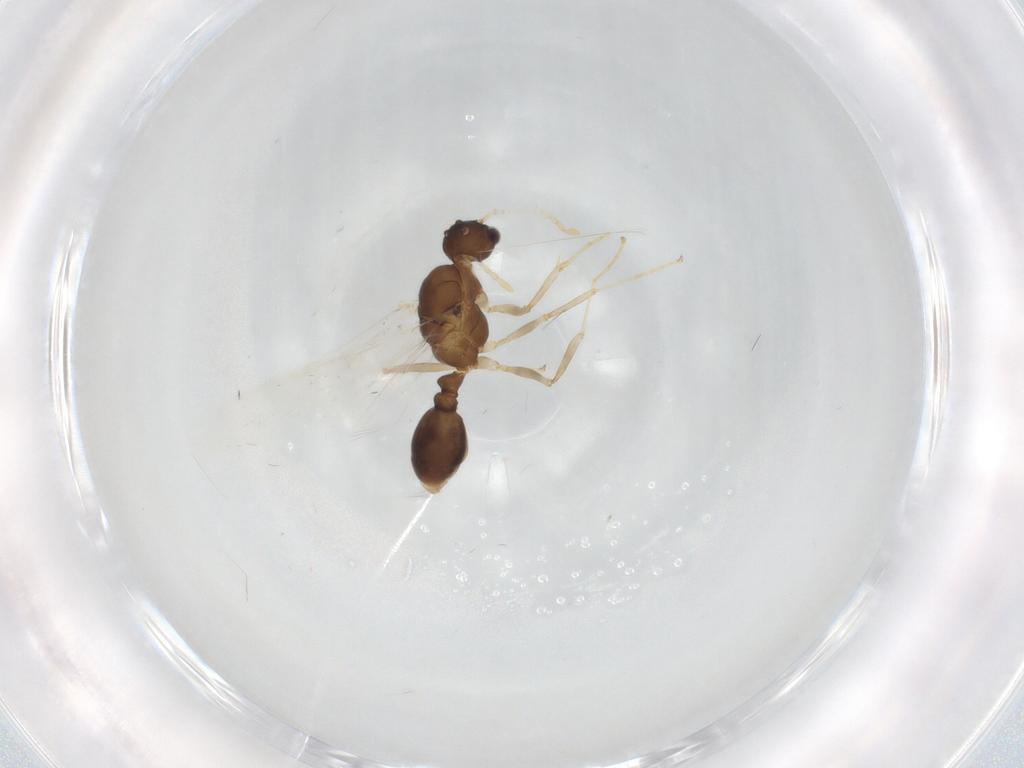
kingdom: Animalia
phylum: Arthropoda
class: Insecta
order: Hymenoptera
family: Formicidae
